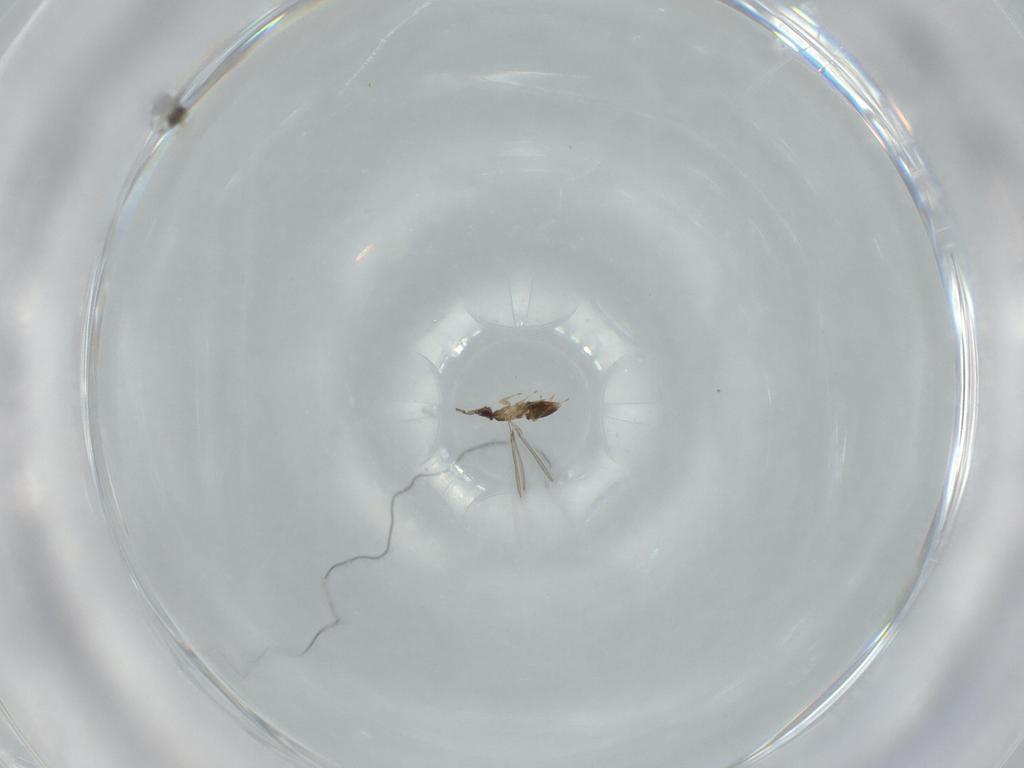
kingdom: Animalia
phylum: Arthropoda
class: Insecta
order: Hymenoptera
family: Mymaridae
